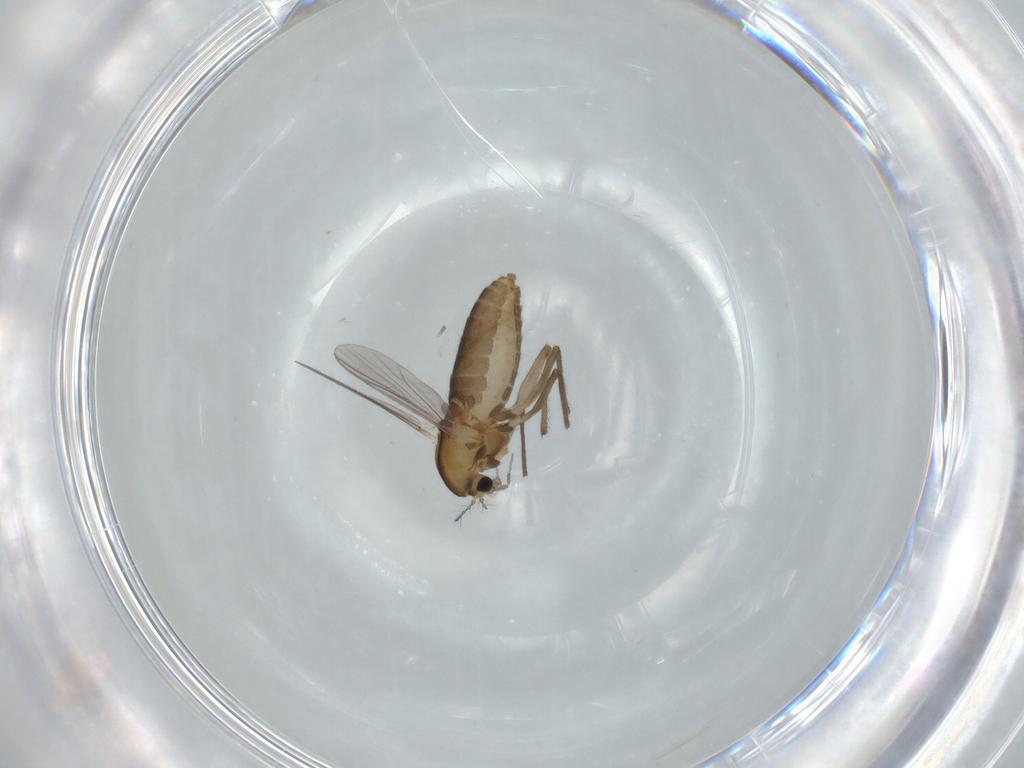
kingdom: Animalia
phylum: Arthropoda
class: Insecta
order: Diptera
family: Chironomidae
